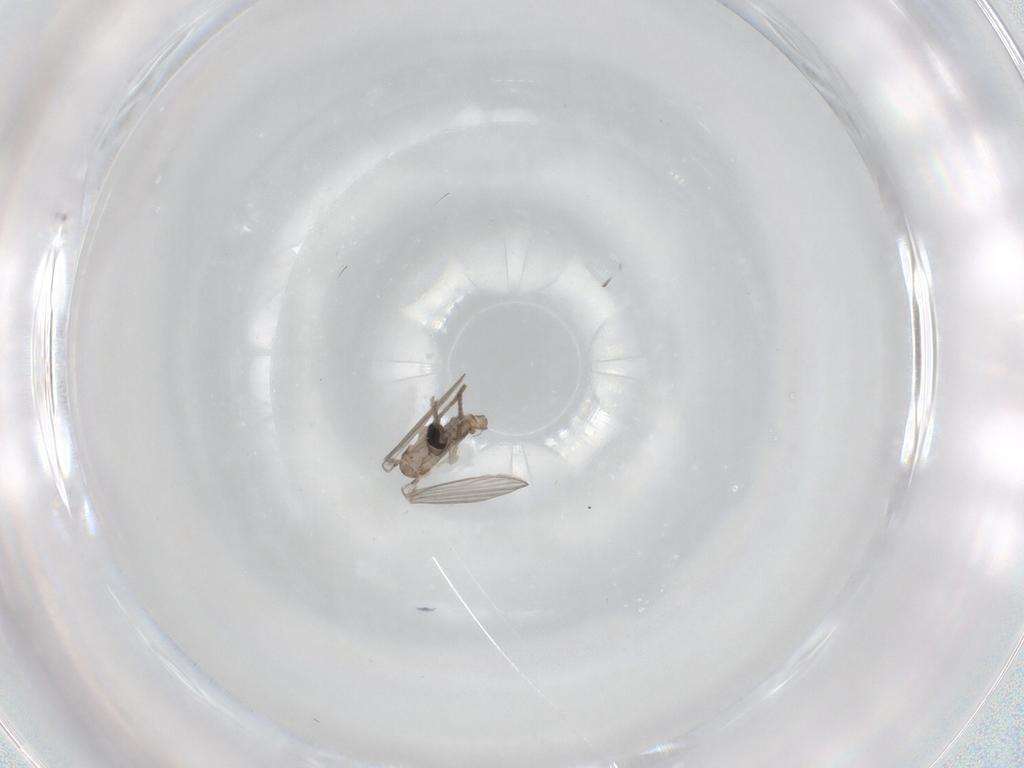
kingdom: Animalia
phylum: Arthropoda
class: Insecta
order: Diptera
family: Psychodidae
